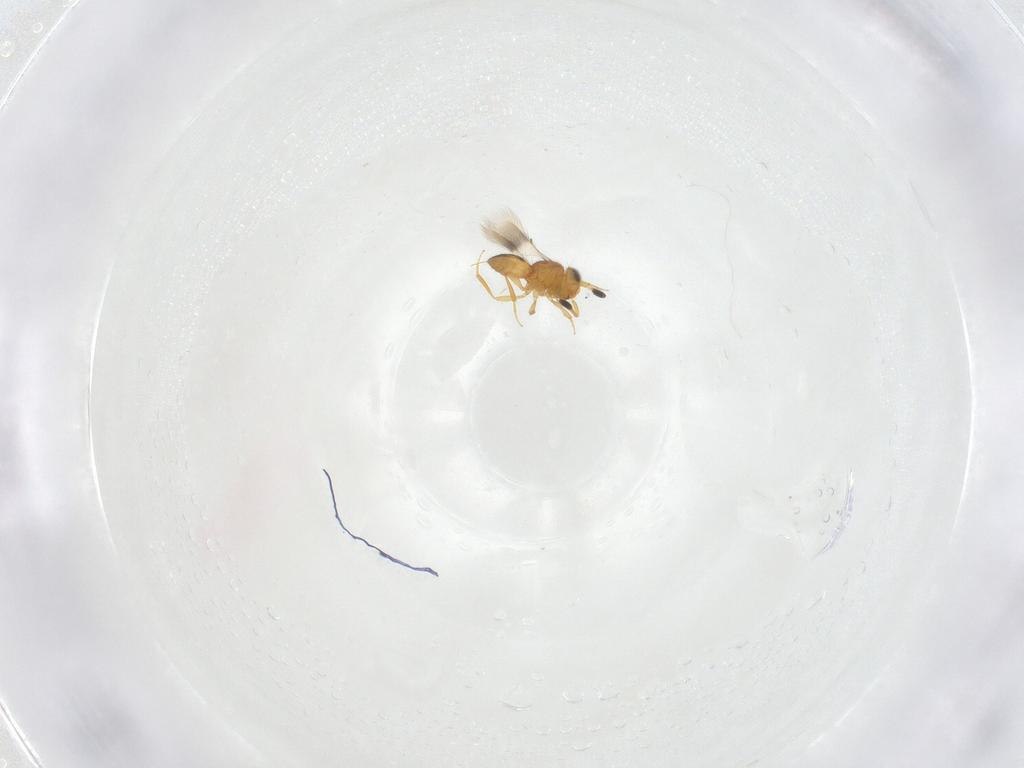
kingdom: Animalia
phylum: Arthropoda
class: Insecta
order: Hymenoptera
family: Scelionidae
